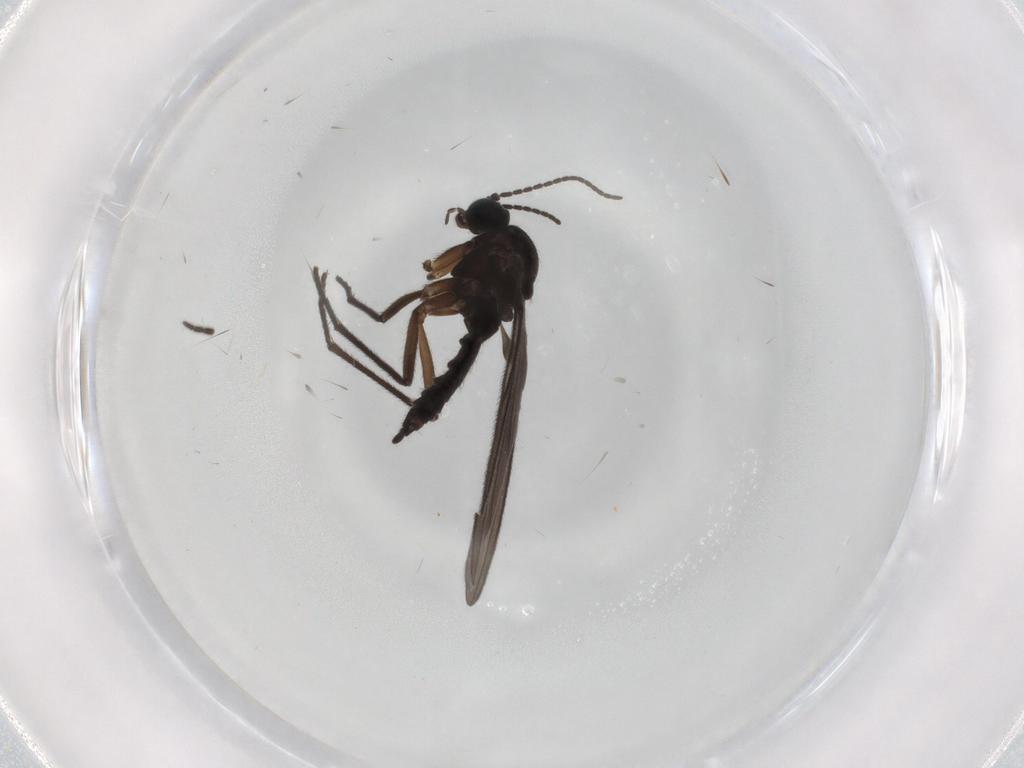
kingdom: Animalia
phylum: Arthropoda
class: Insecta
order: Diptera
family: Sciaridae
